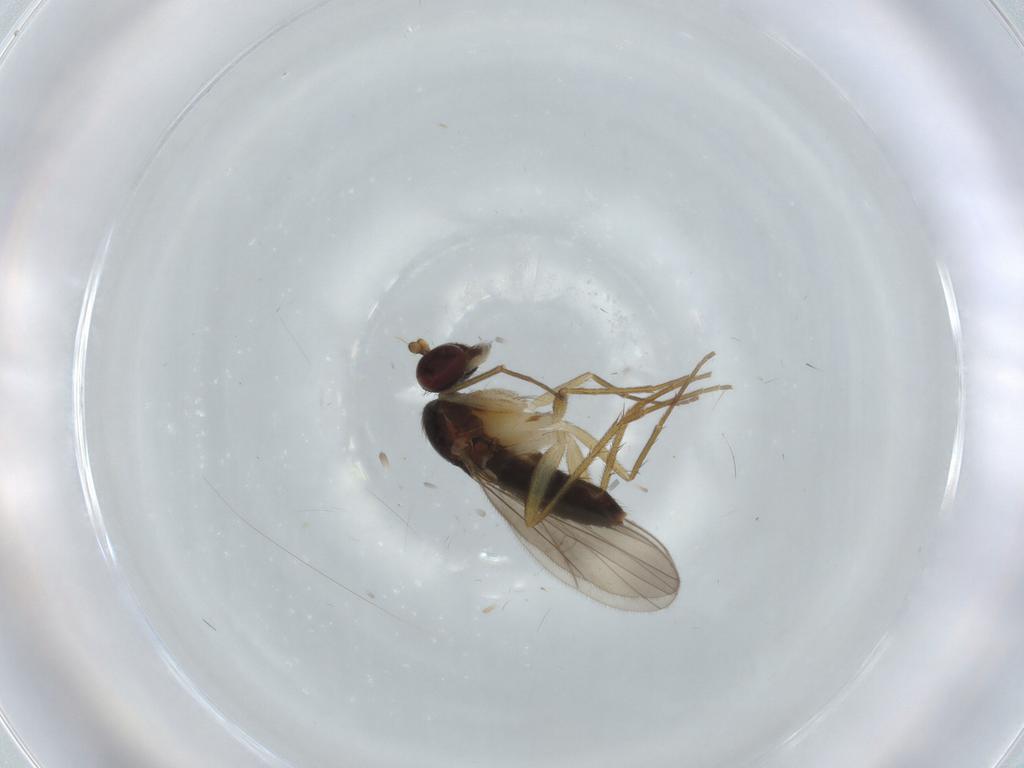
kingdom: Animalia
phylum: Arthropoda
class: Insecta
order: Diptera
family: Dolichopodidae
